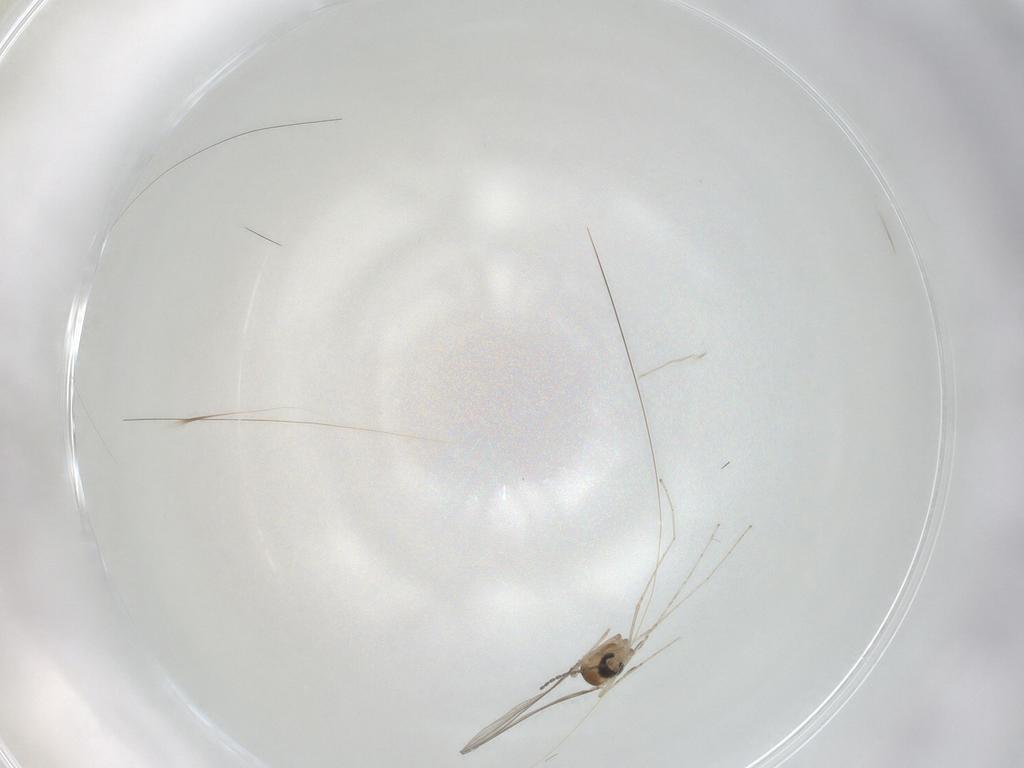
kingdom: Animalia
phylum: Arthropoda
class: Insecta
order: Diptera
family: Cecidomyiidae
